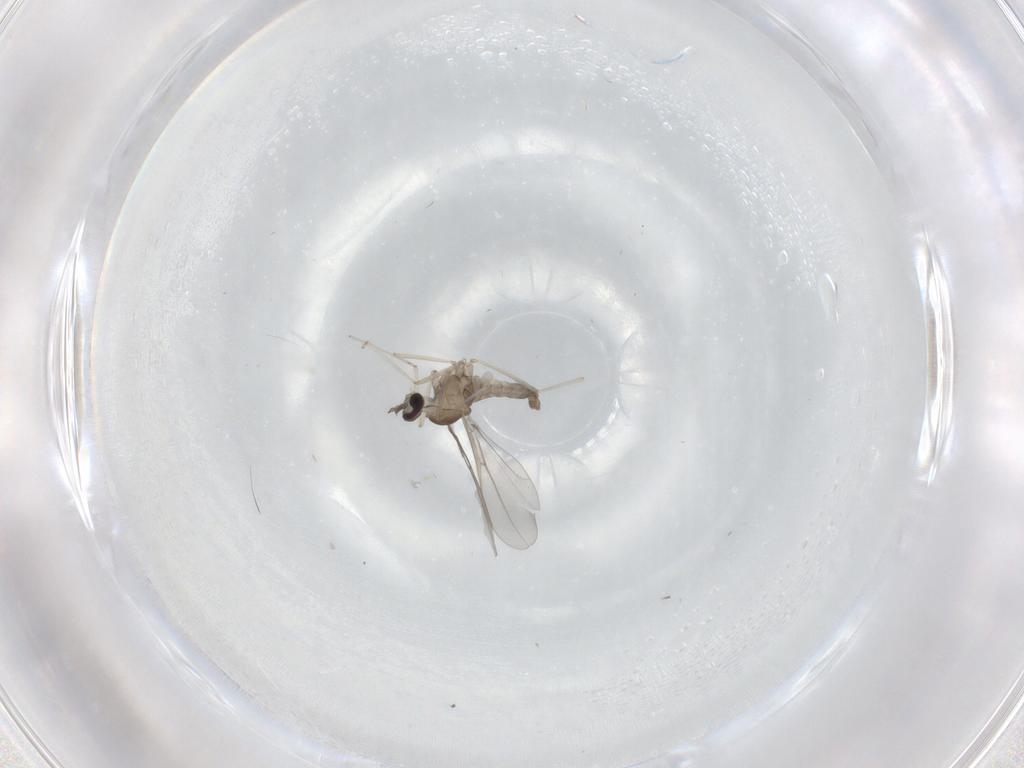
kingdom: Animalia
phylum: Arthropoda
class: Insecta
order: Diptera
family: Cecidomyiidae
